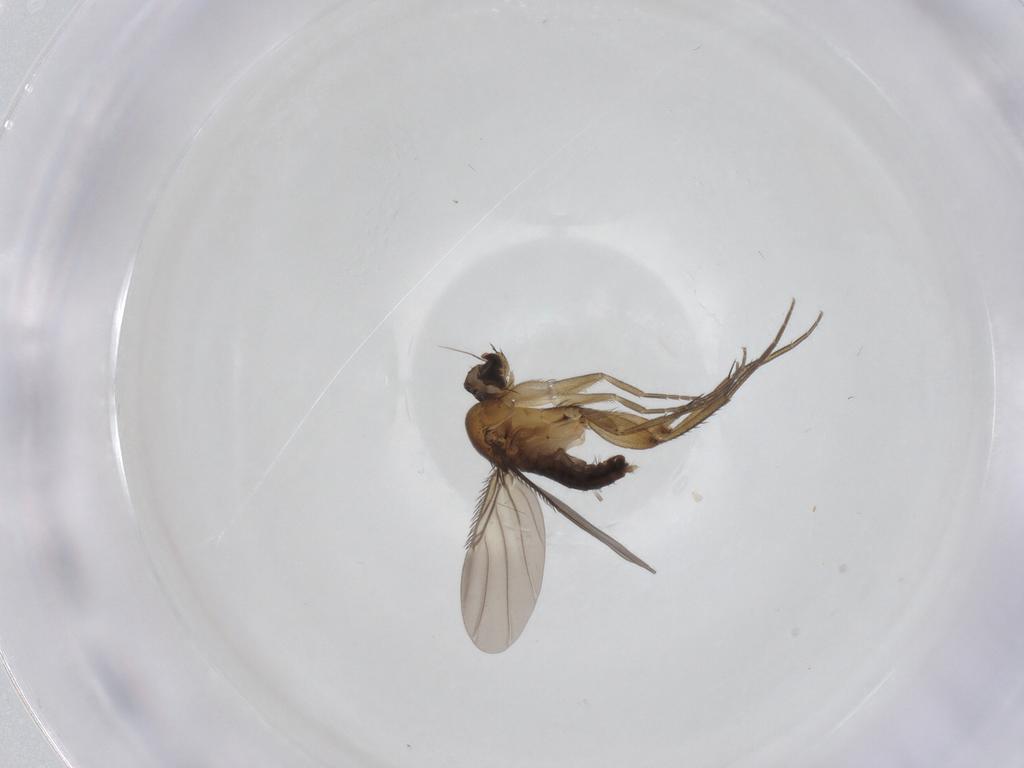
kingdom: Animalia
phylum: Arthropoda
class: Insecta
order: Diptera
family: Phoridae
